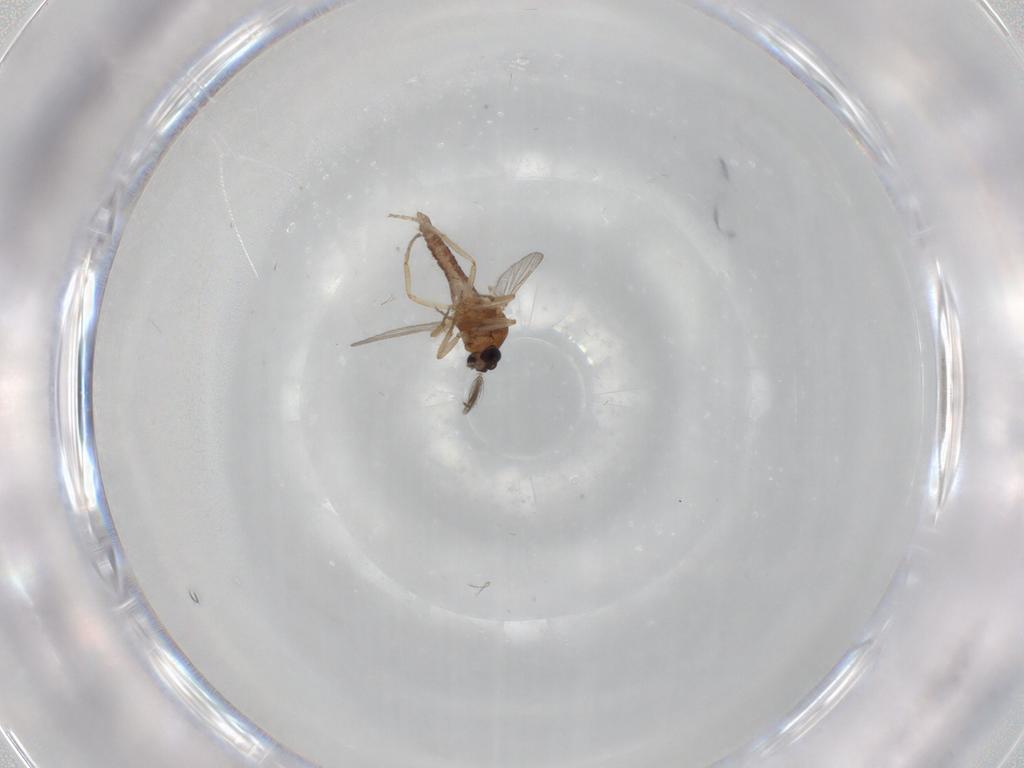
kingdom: Animalia
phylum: Arthropoda
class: Insecta
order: Diptera
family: Ceratopogonidae
